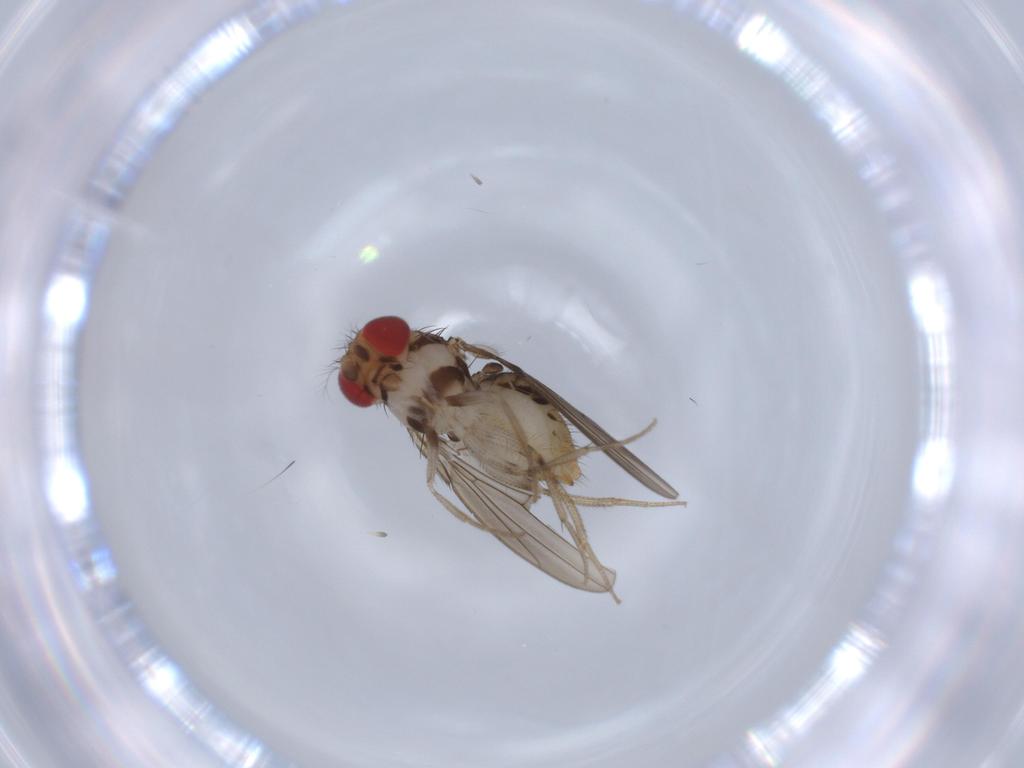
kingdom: Animalia
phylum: Arthropoda
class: Insecta
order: Diptera
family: Drosophilidae
